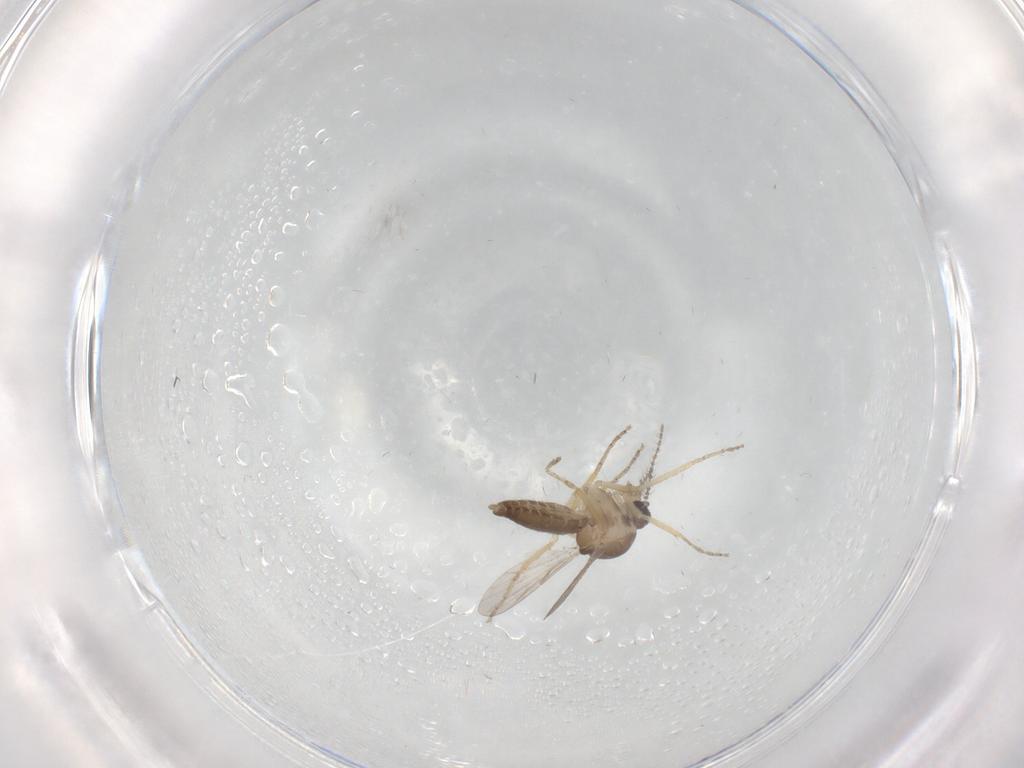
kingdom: Animalia
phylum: Arthropoda
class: Insecta
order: Diptera
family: Ceratopogonidae
